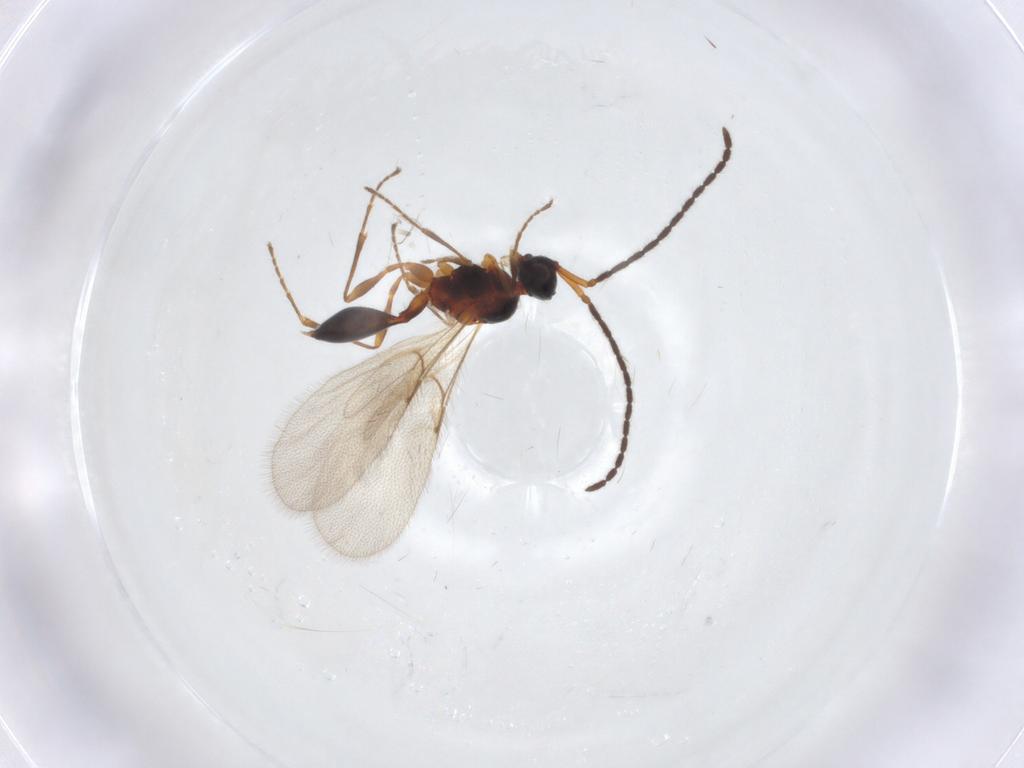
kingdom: Animalia
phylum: Arthropoda
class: Insecta
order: Hymenoptera
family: Diapriidae
